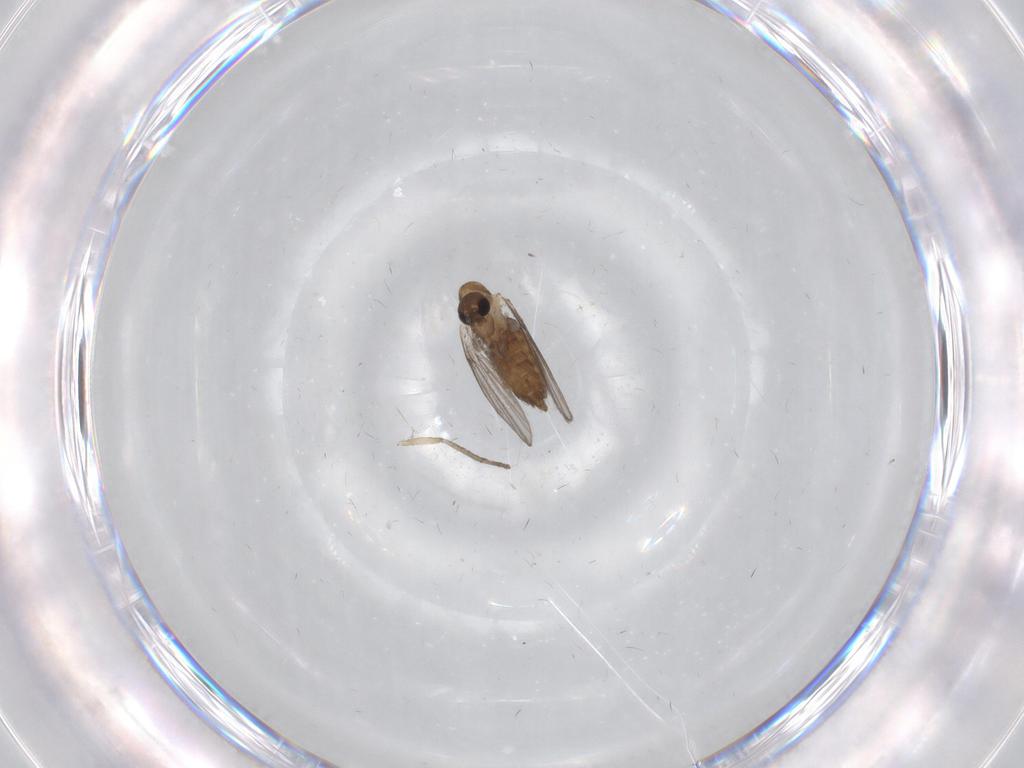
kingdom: Animalia
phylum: Arthropoda
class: Insecta
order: Diptera
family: Psychodidae
